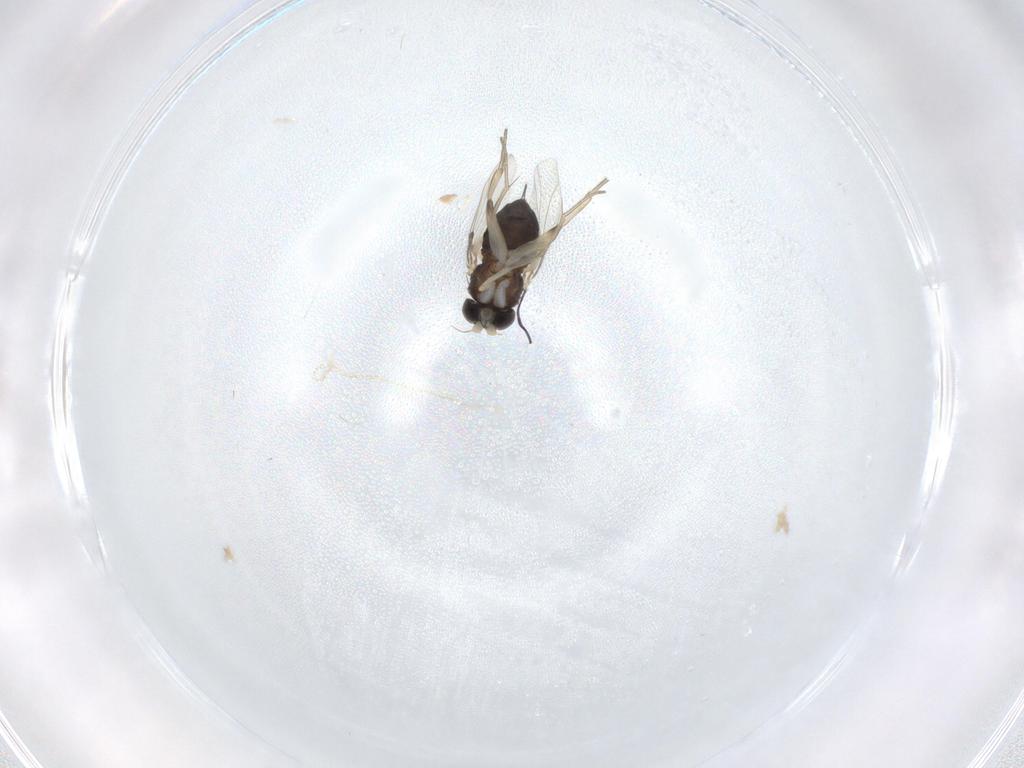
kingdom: Animalia
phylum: Arthropoda
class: Insecta
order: Diptera
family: Phoridae
